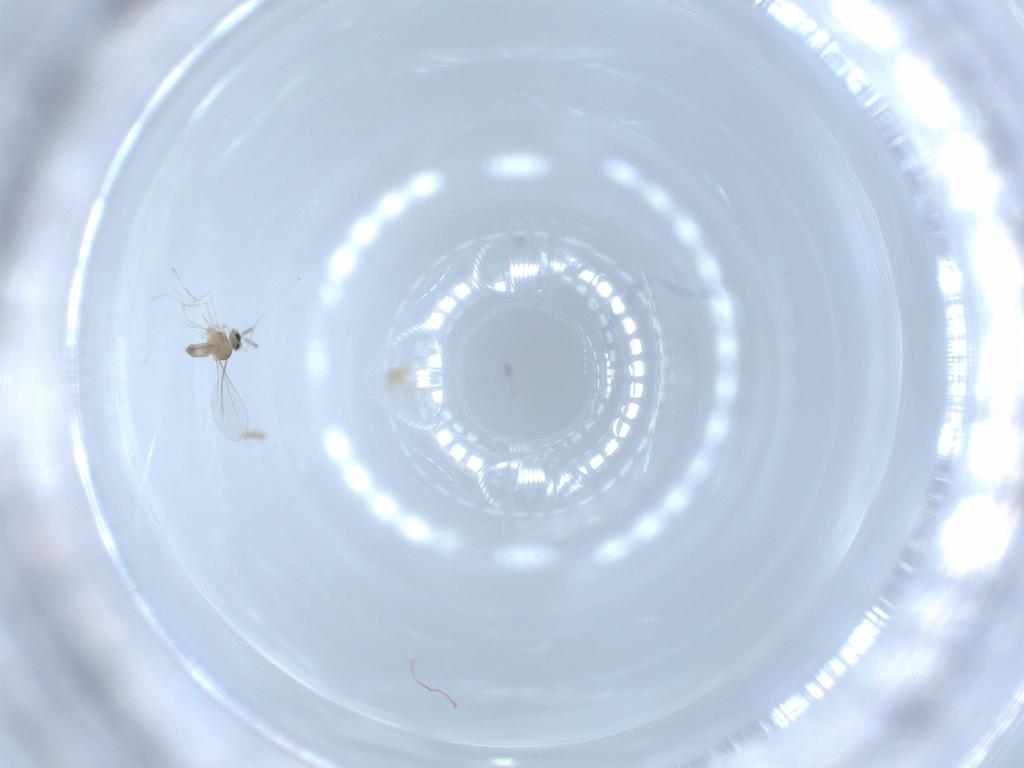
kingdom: Animalia
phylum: Arthropoda
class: Insecta
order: Diptera
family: Cecidomyiidae
